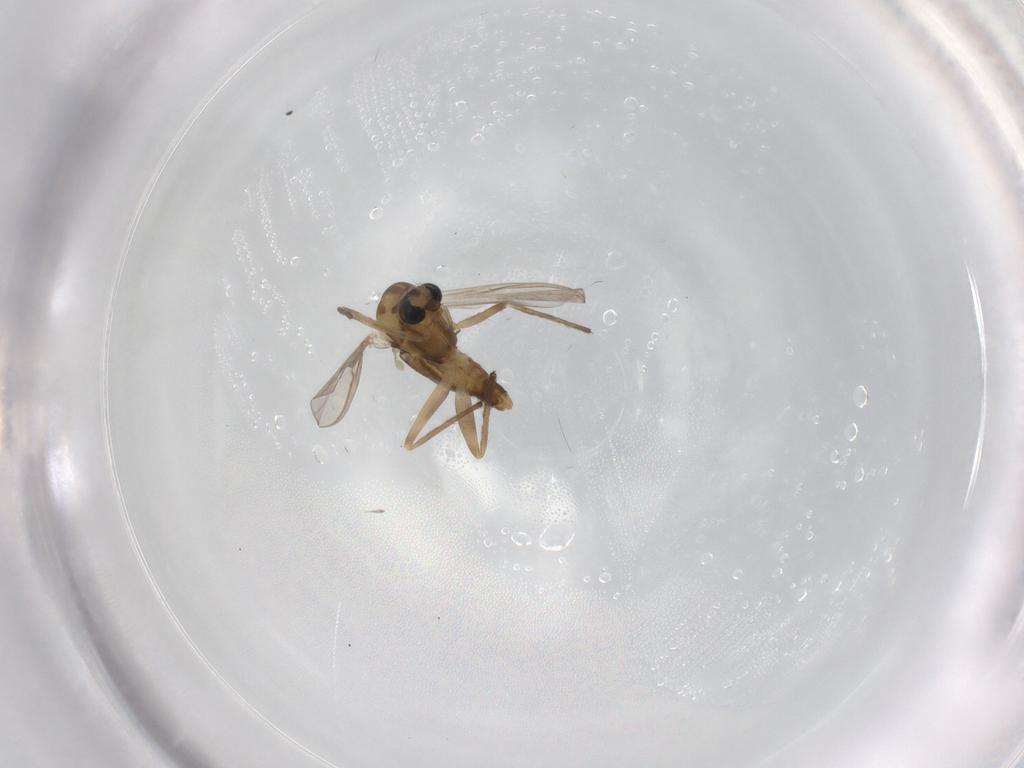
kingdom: Animalia
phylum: Arthropoda
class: Insecta
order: Diptera
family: Chironomidae
